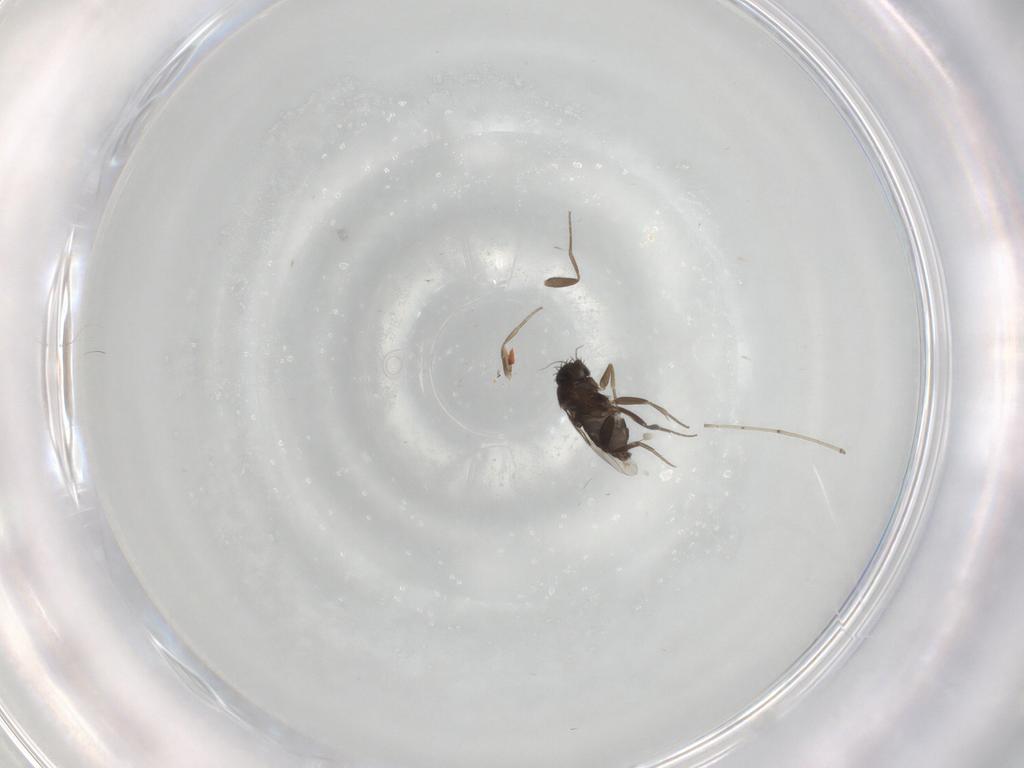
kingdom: Animalia
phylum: Arthropoda
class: Insecta
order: Diptera
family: Phoridae
